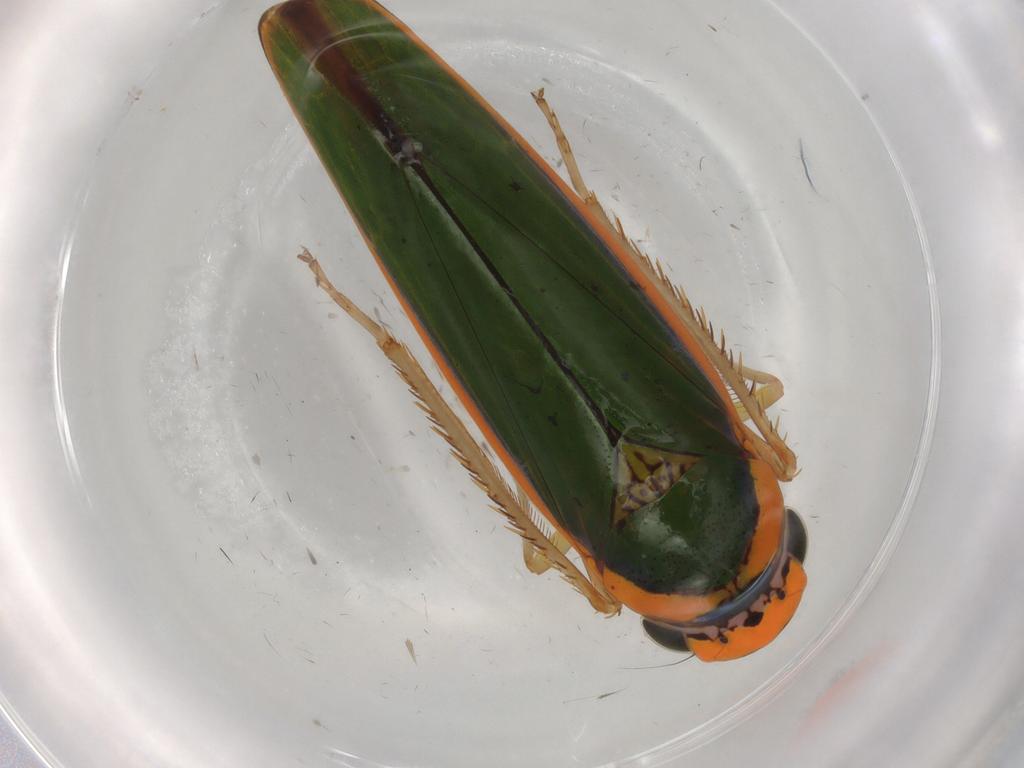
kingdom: Animalia
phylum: Arthropoda
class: Insecta
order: Hemiptera
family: Cicadellidae
